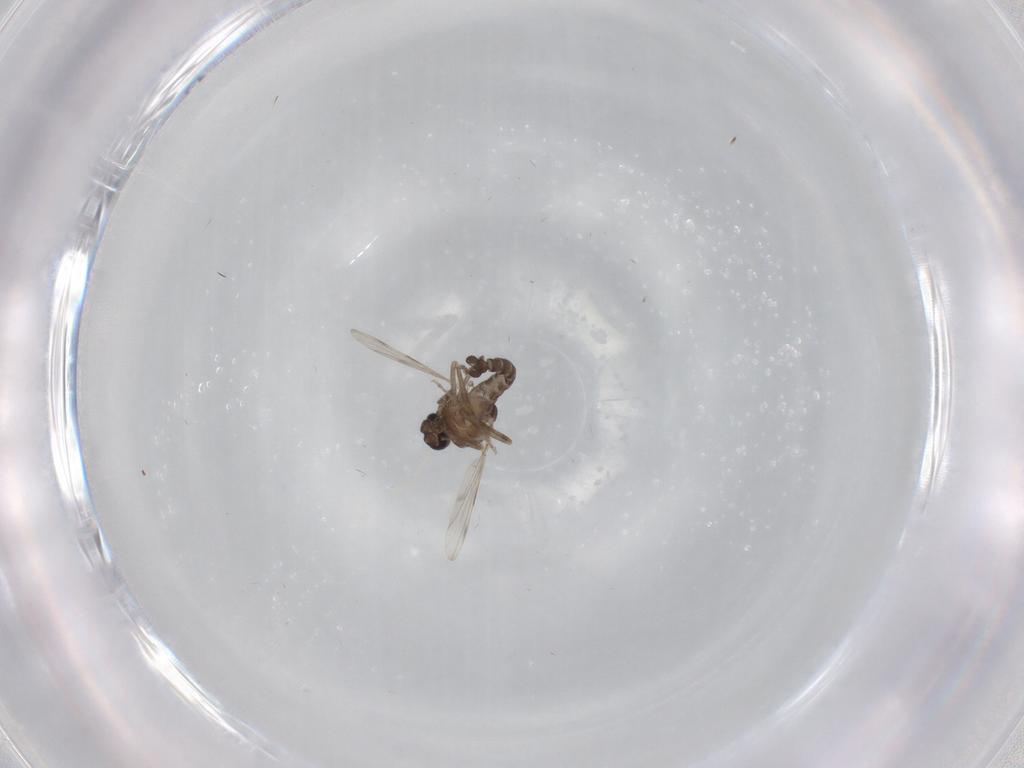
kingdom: Animalia
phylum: Arthropoda
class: Insecta
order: Diptera
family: Ceratopogonidae
